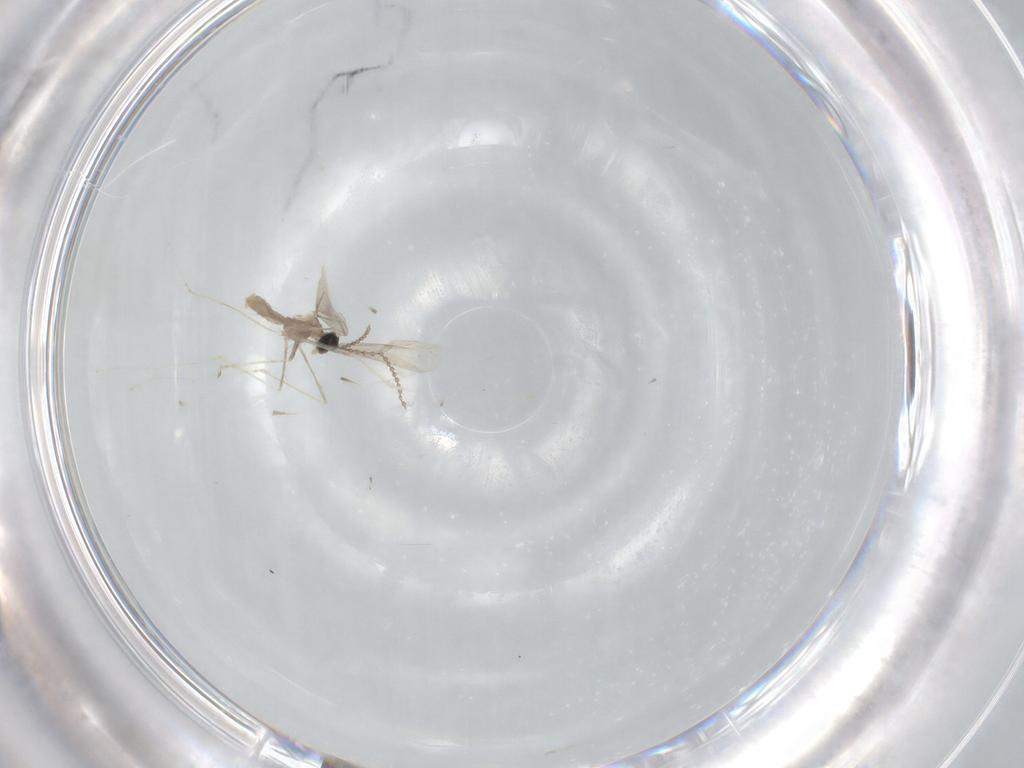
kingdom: Animalia
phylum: Arthropoda
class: Insecta
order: Diptera
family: Cecidomyiidae
